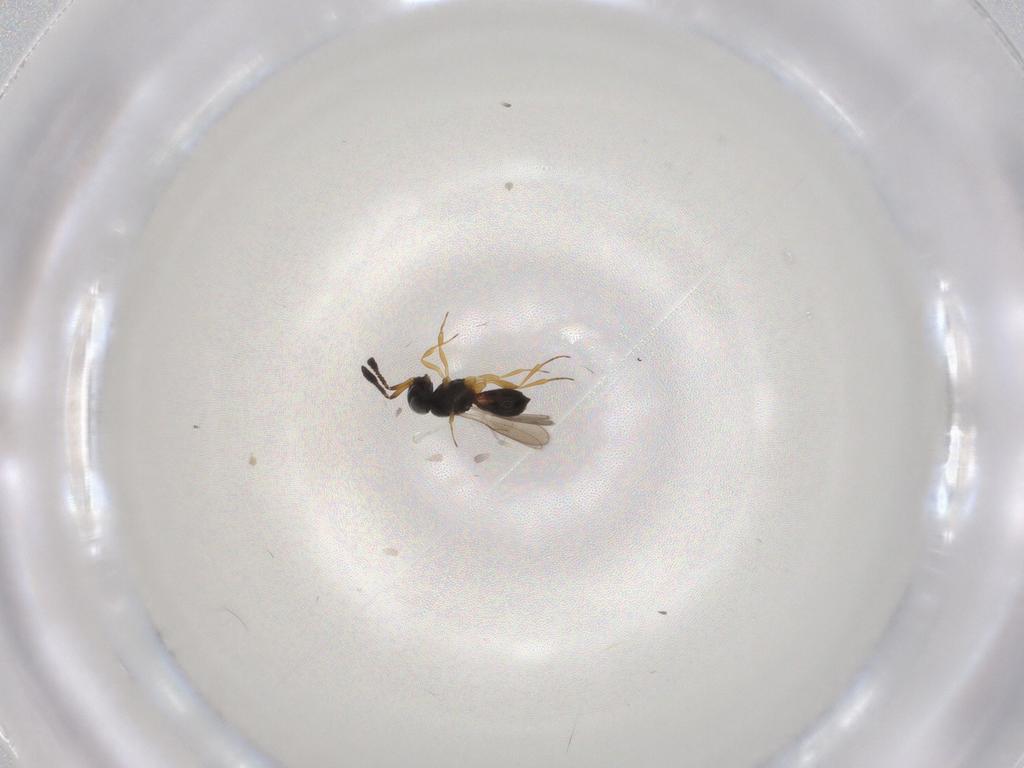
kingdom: Animalia
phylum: Arthropoda
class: Insecta
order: Hymenoptera
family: Scelionidae
